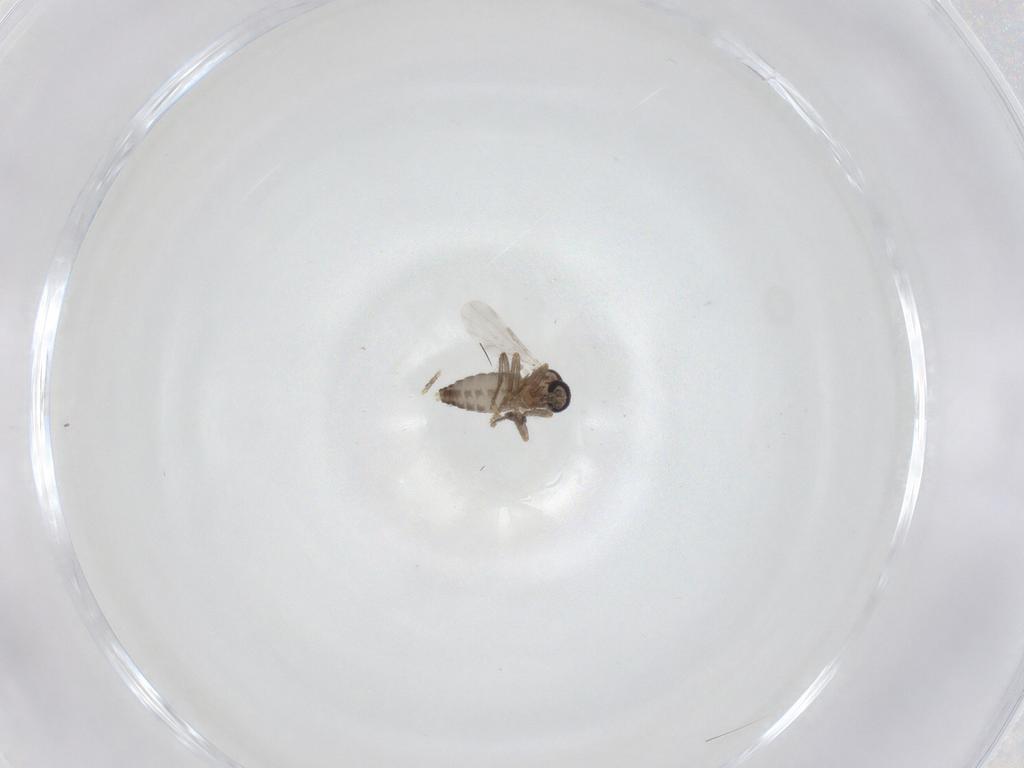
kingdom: Animalia
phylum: Arthropoda
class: Insecta
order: Diptera
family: Ceratopogonidae
